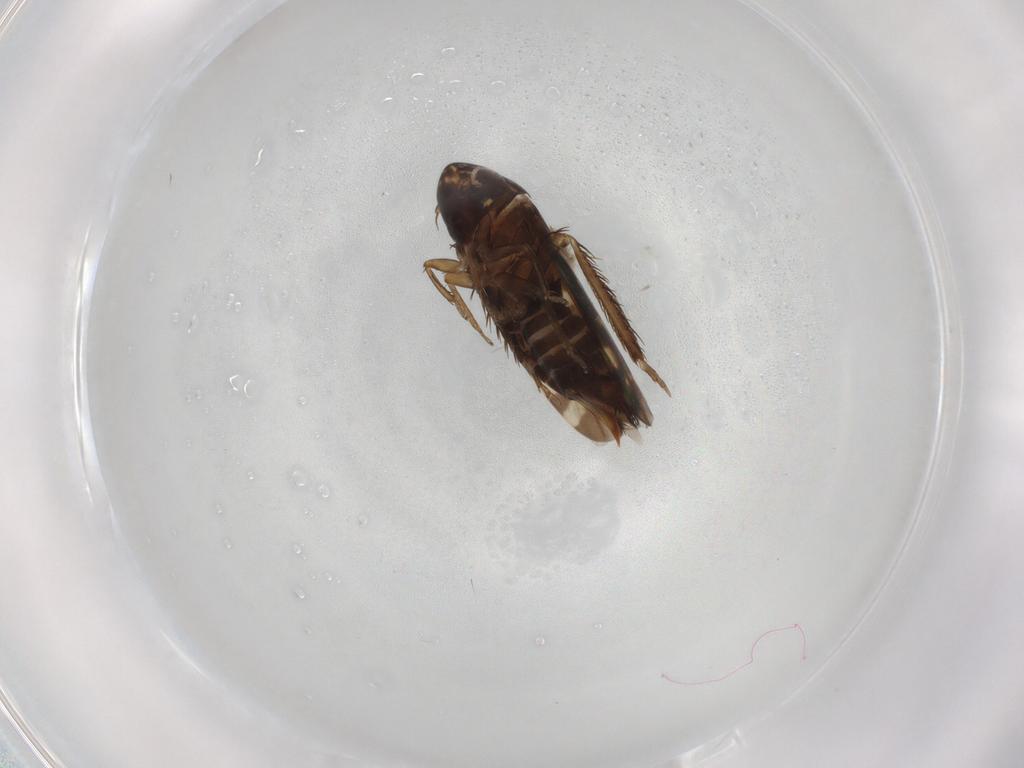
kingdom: Animalia
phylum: Arthropoda
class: Insecta
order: Hemiptera
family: Cicadellidae
